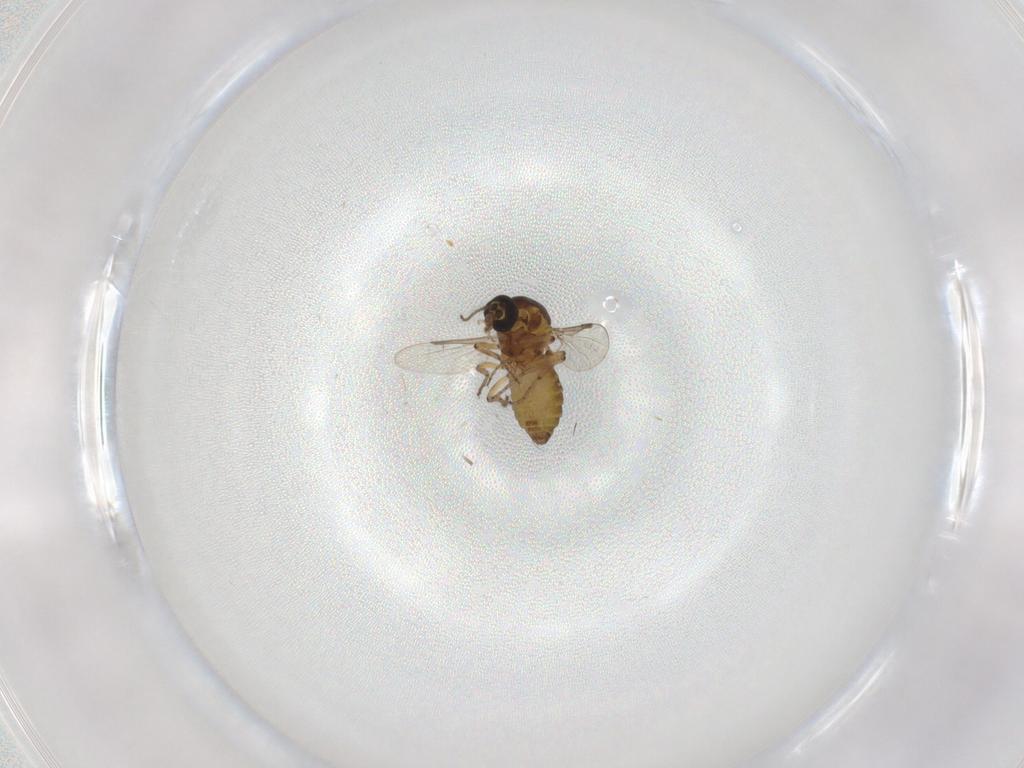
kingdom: Animalia
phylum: Arthropoda
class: Insecta
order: Diptera
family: Ceratopogonidae
